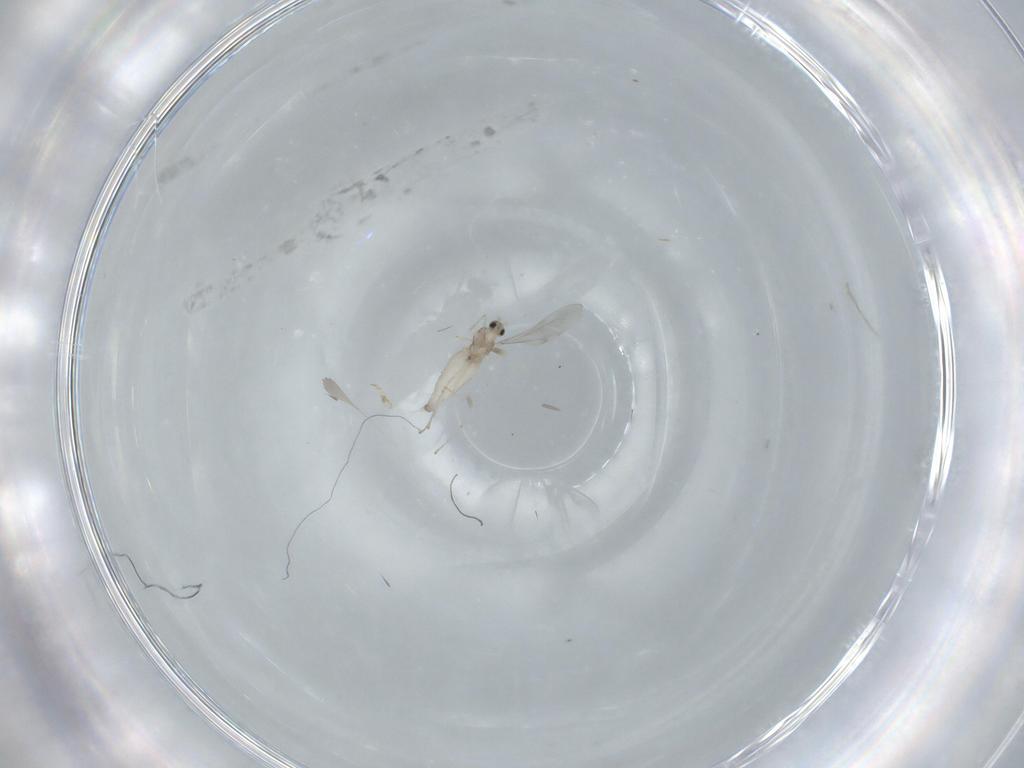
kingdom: Animalia
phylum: Arthropoda
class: Insecta
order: Diptera
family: Cecidomyiidae
